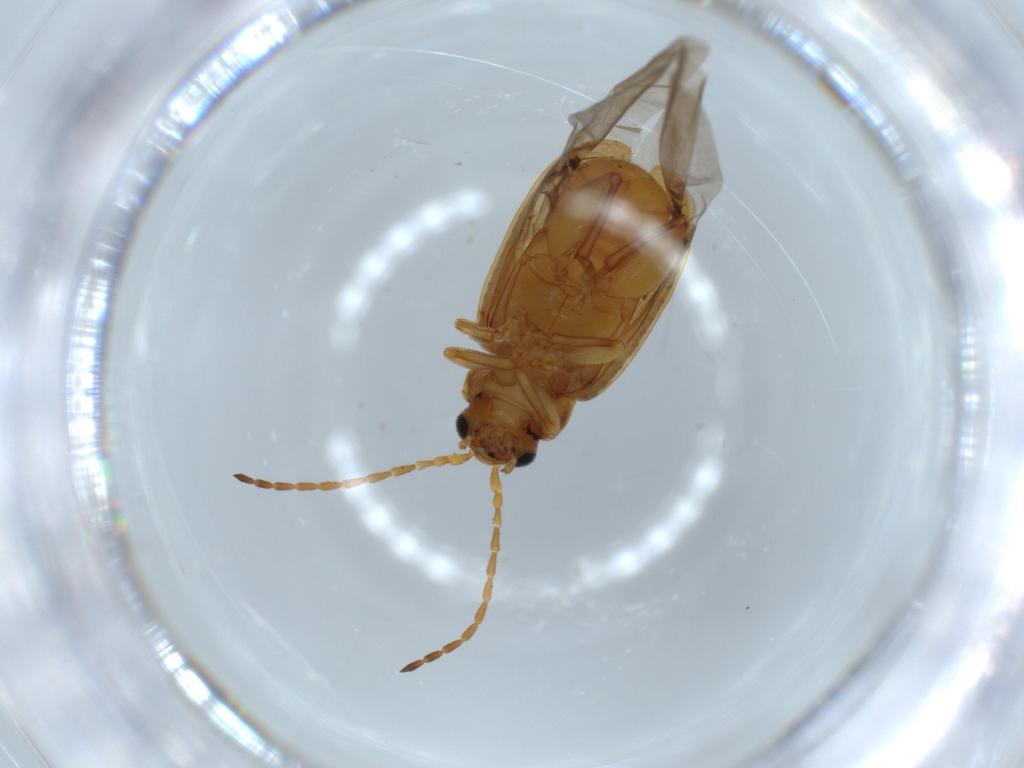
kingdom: Animalia
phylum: Arthropoda
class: Insecta
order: Coleoptera
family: Chrysomelidae
